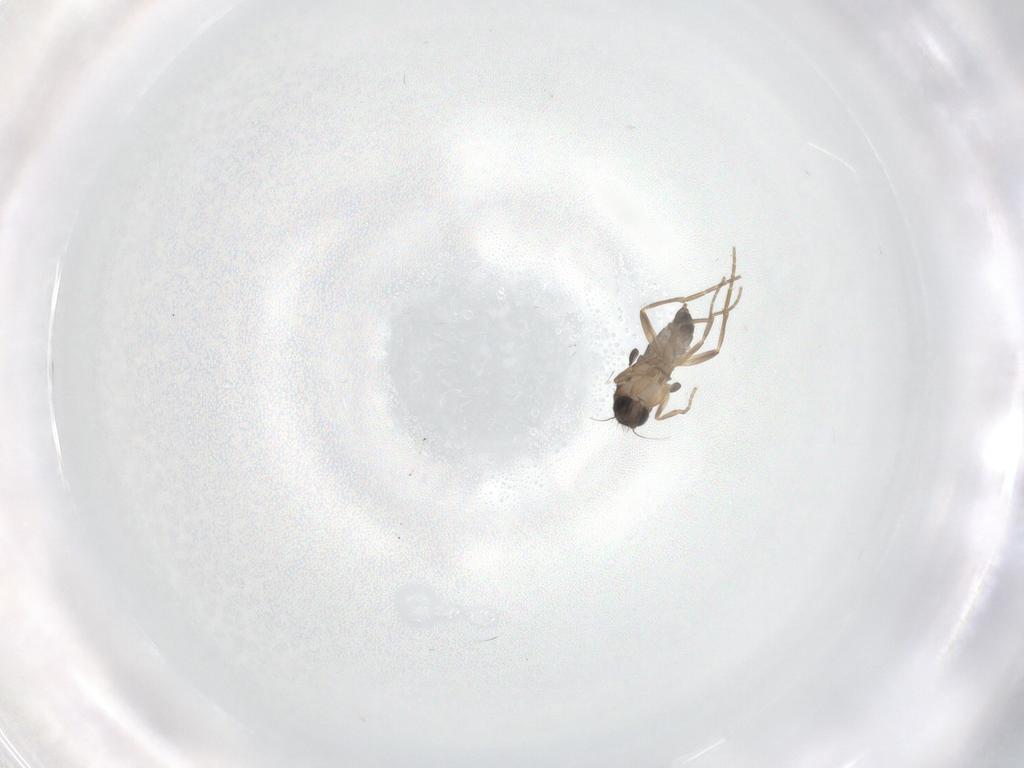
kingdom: Animalia
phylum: Arthropoda
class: Insecta
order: Diptera
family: Phoridae
